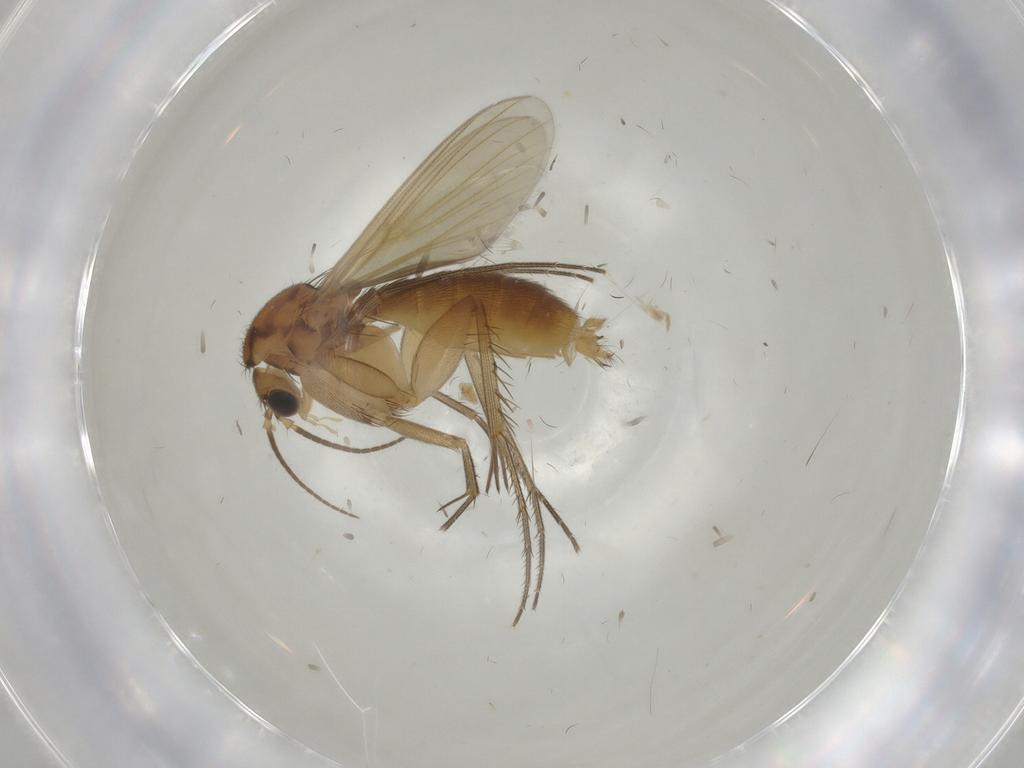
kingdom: Animalia
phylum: Arthropoda
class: Insecta
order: Diptera
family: Mycetophilidae
